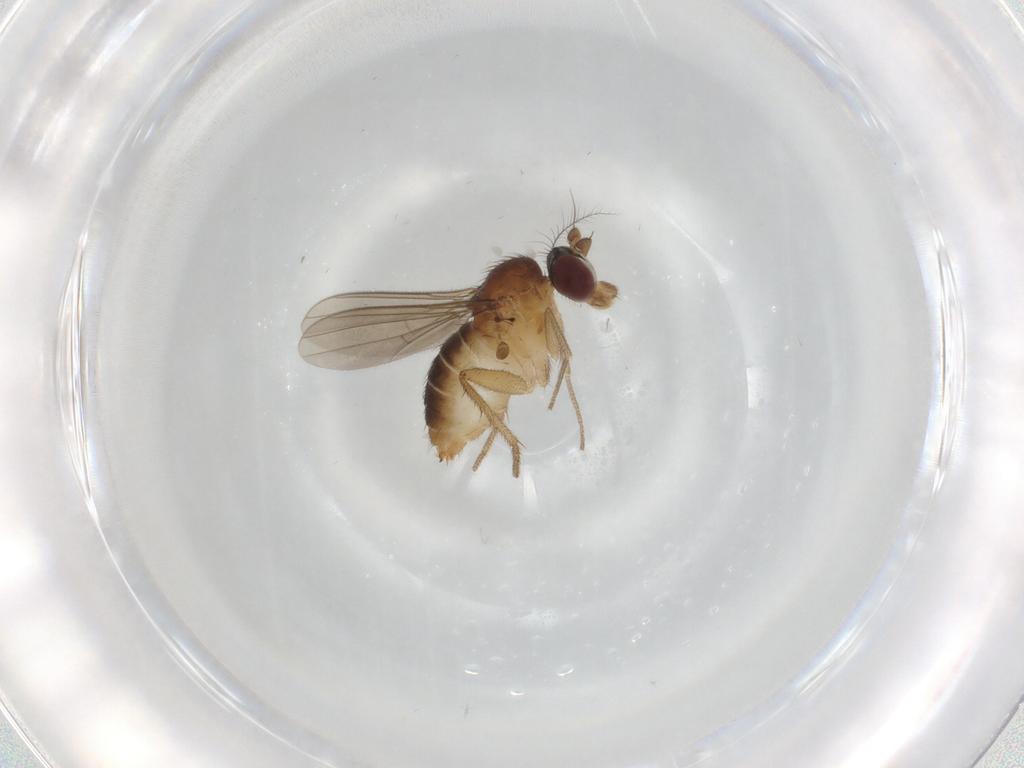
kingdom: Animalia
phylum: Arthropoda
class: Insecta
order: Diptera
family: Dolichopodidae
